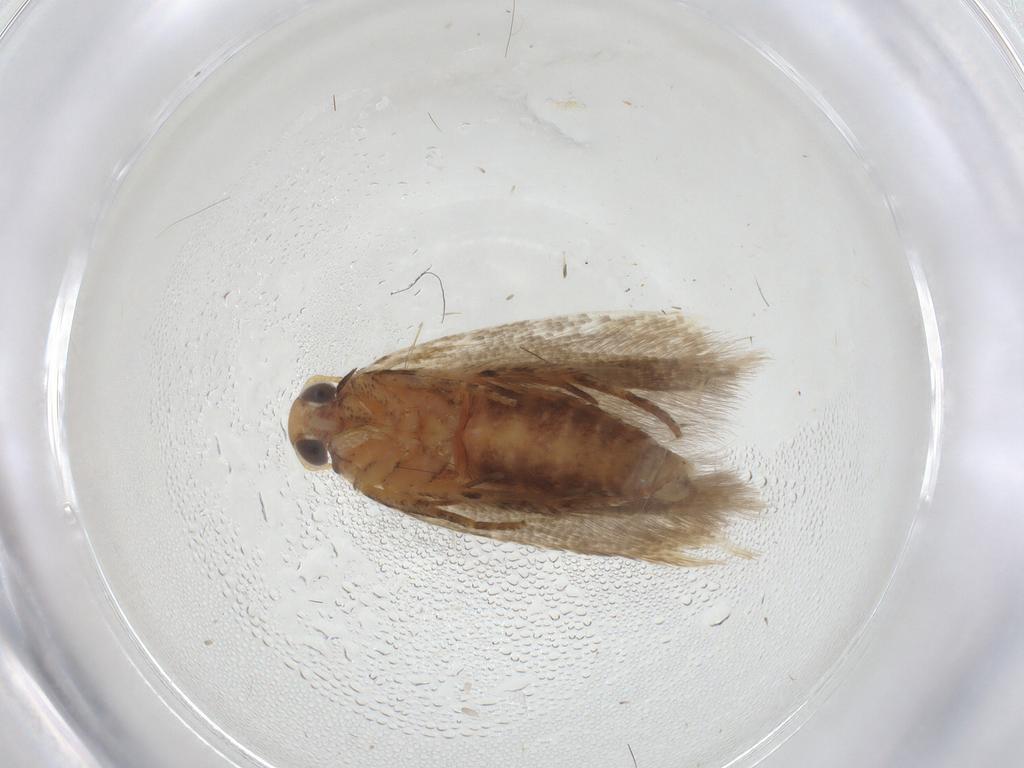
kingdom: Animalia
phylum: Arthropoda
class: Insecta
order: Lepidoptera
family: Gelechiidae
